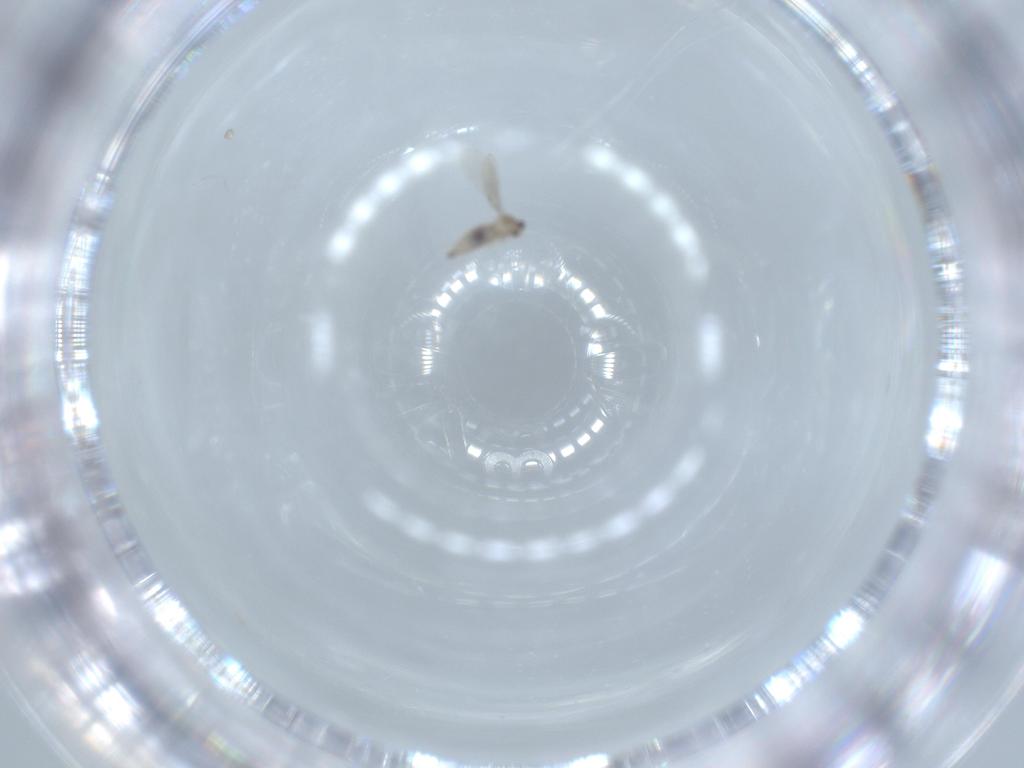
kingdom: Animalia
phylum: Arthropoda
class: Insecta
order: Diptera
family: Cecidomyiidae
